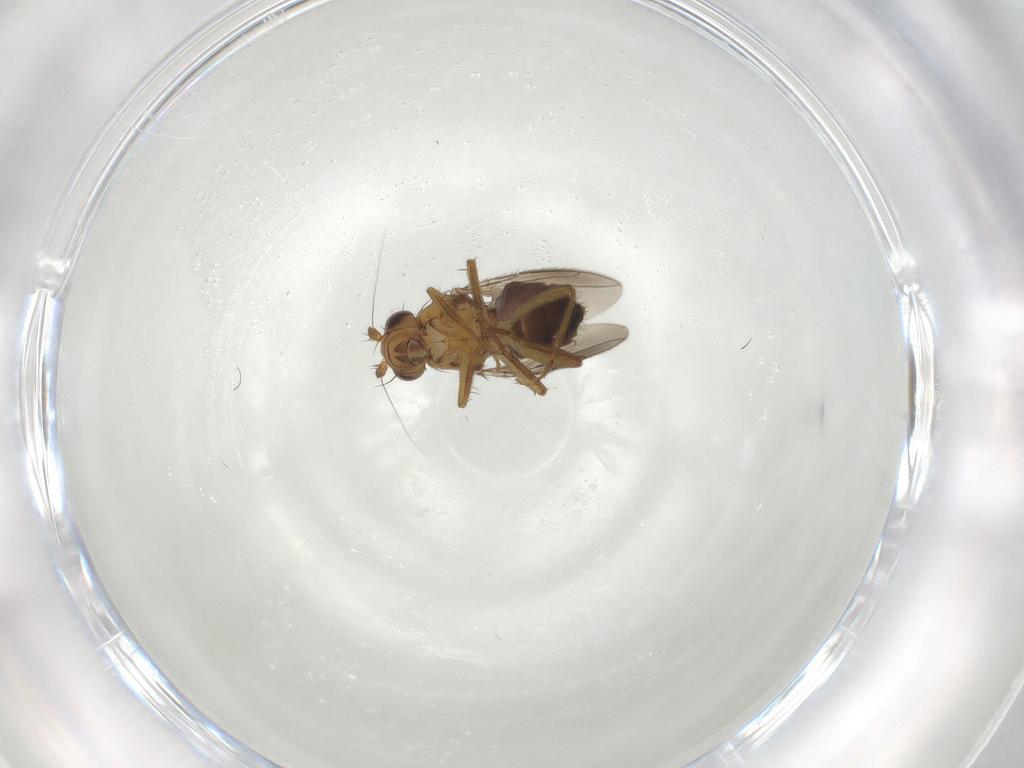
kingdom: Animalia
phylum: Arthropoda
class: Insecta
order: Diptera
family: Sphaeroceridae
